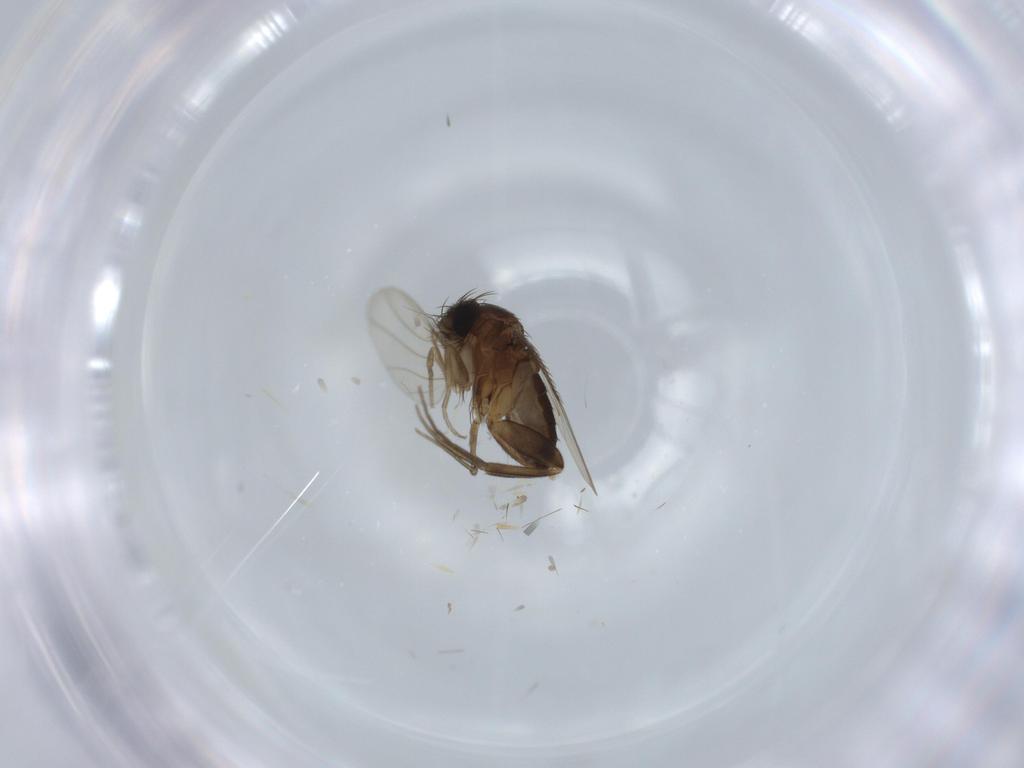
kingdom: Animalia
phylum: Arthropoda
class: Insecta
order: Diptera
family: Phoridae
